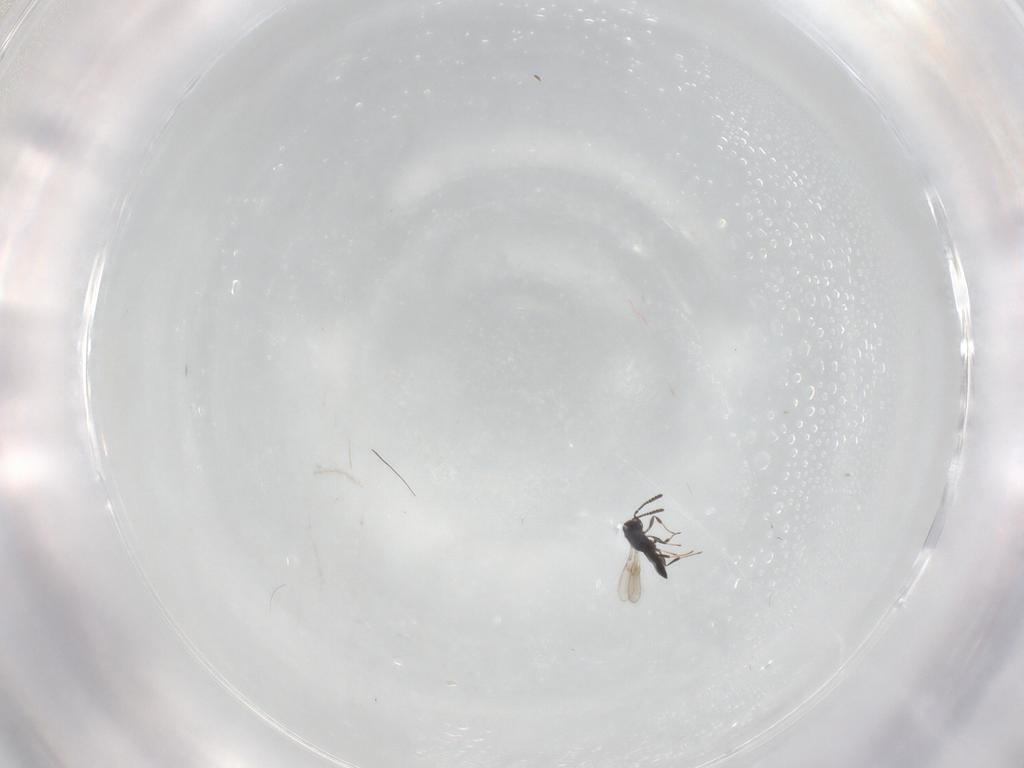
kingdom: Animalia
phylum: Arthropoda
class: Insecta
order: Hymenoptera
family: Scelionidae
